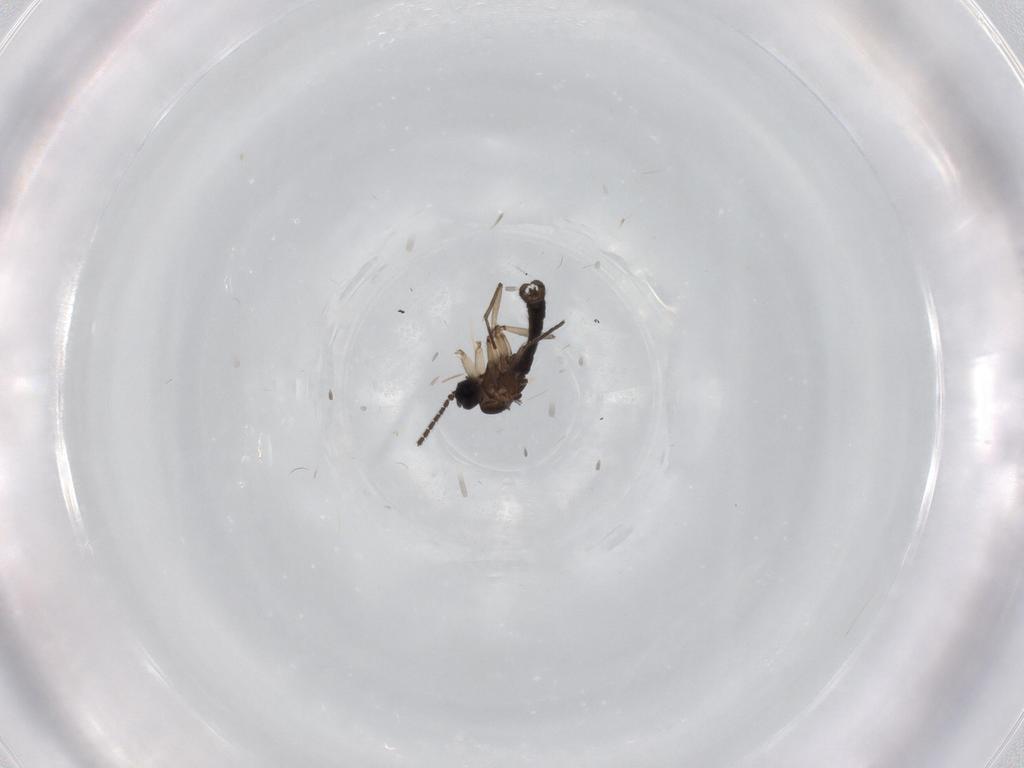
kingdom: Animalia
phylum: Arthropoda
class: Insecta
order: Diptera
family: Sciaridae
